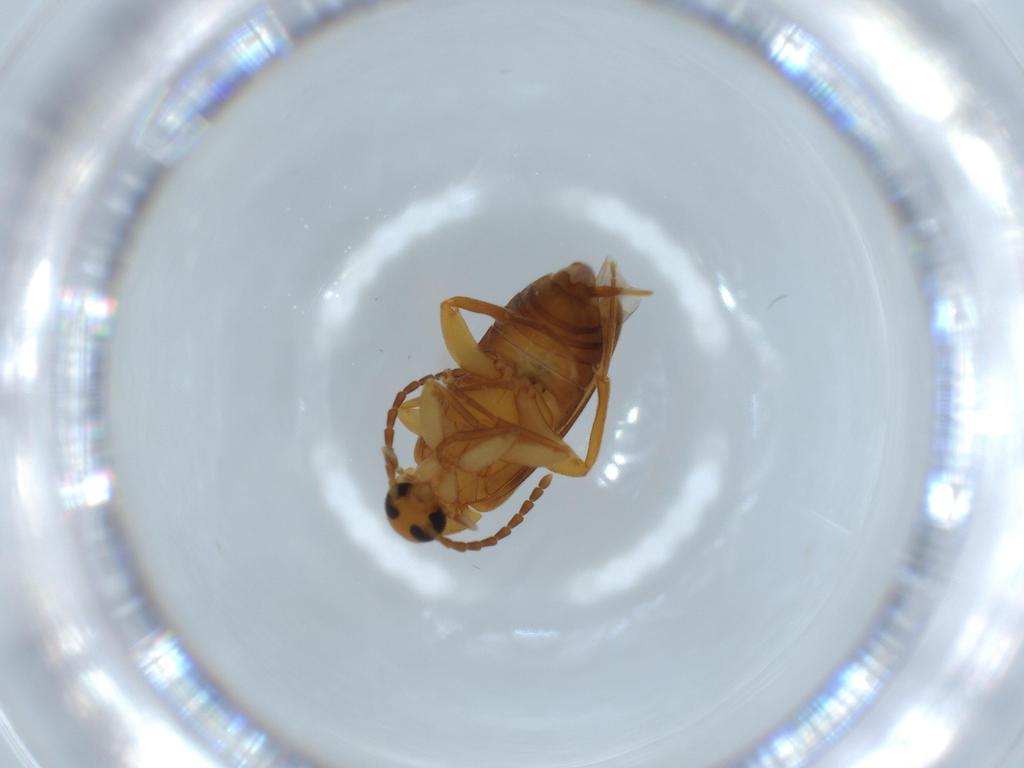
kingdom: Animalia
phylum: Arthropoda
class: Insecta
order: Coleoptera
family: Scraptiidae
